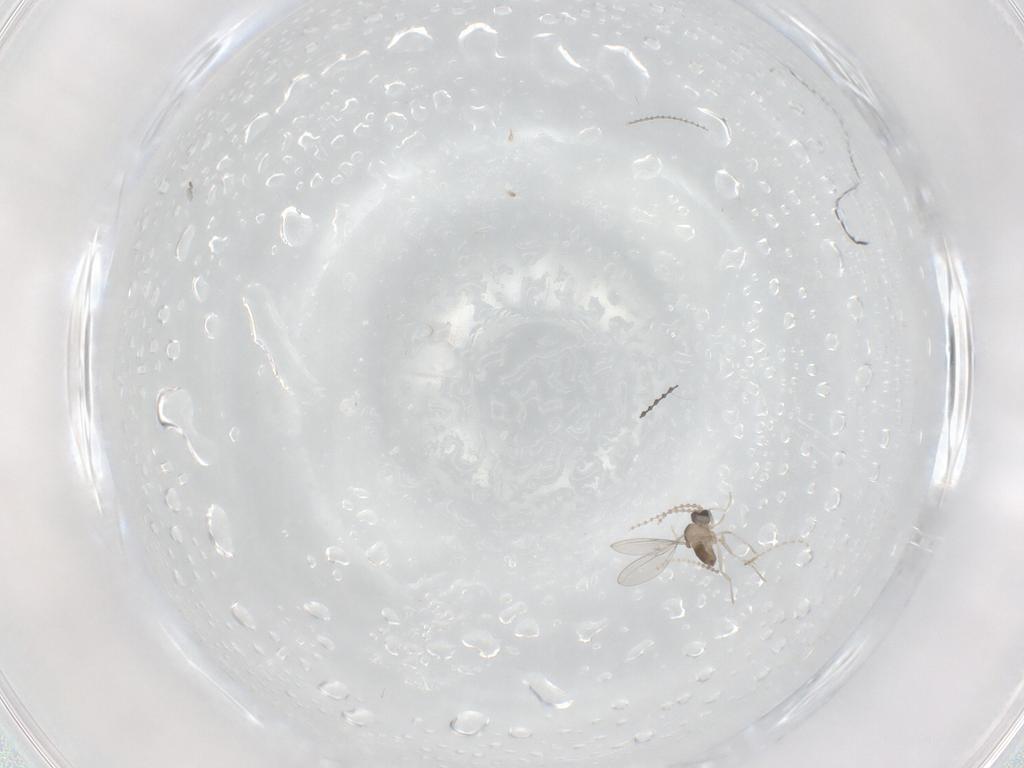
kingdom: Animalia
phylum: Arthropoda
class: Insecta
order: Diptera
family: Cecidomyiidae
